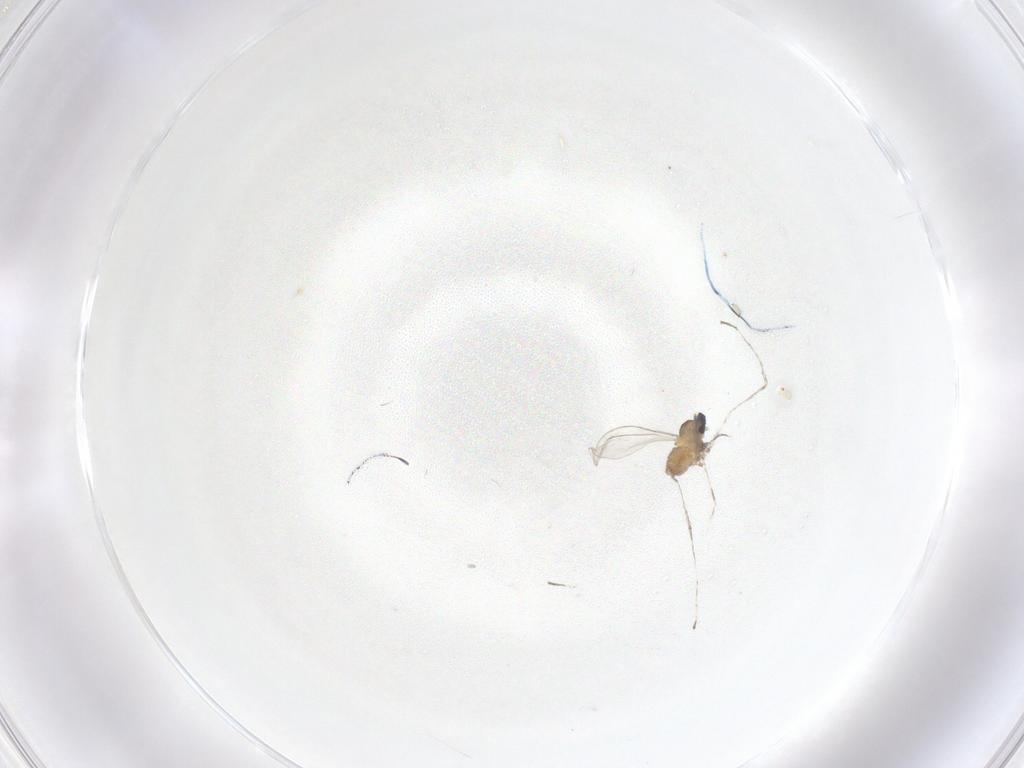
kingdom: Animalia
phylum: Arthropoda
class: Insecta
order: Diptera
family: Cecidomyiidae
